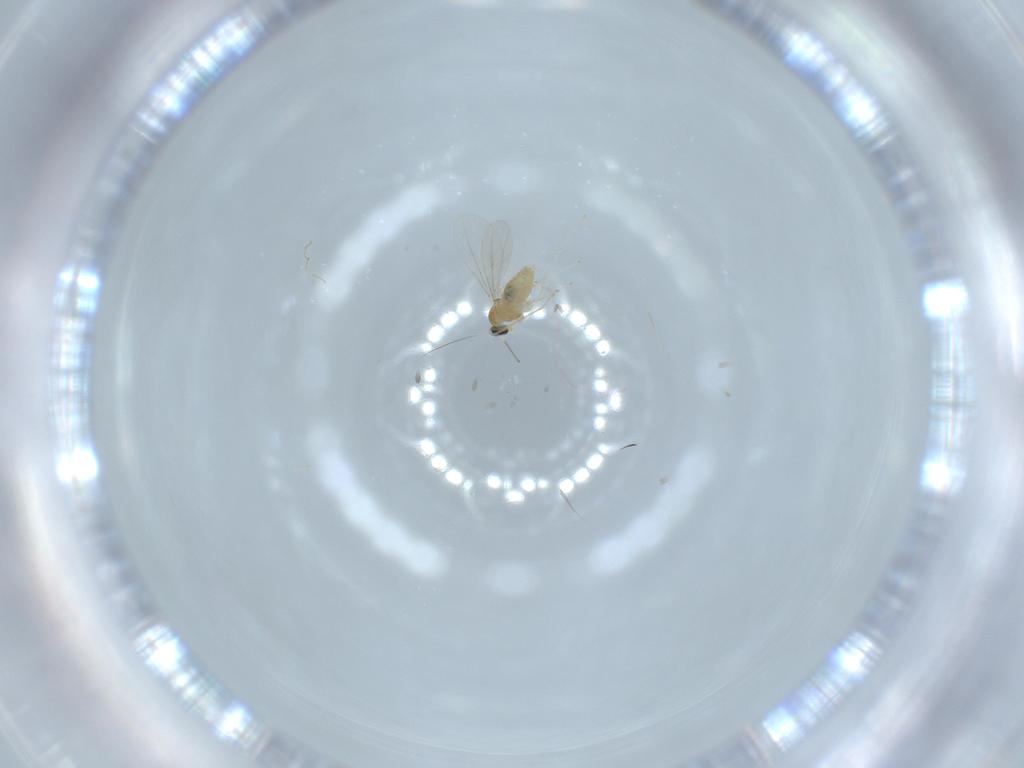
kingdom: Animalia
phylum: Arthropoda
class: Insecta
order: Diptera
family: Cecidomyiidae
